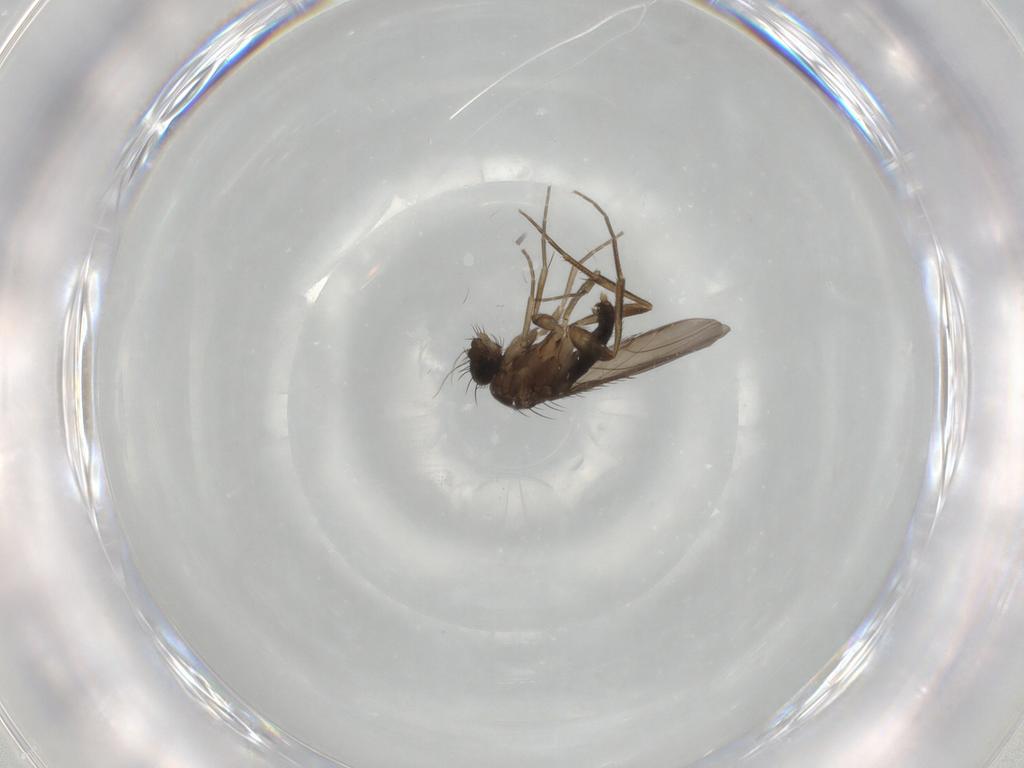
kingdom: Animalia
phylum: Arthropoda
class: Insecta
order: Diptera
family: Phoridae
